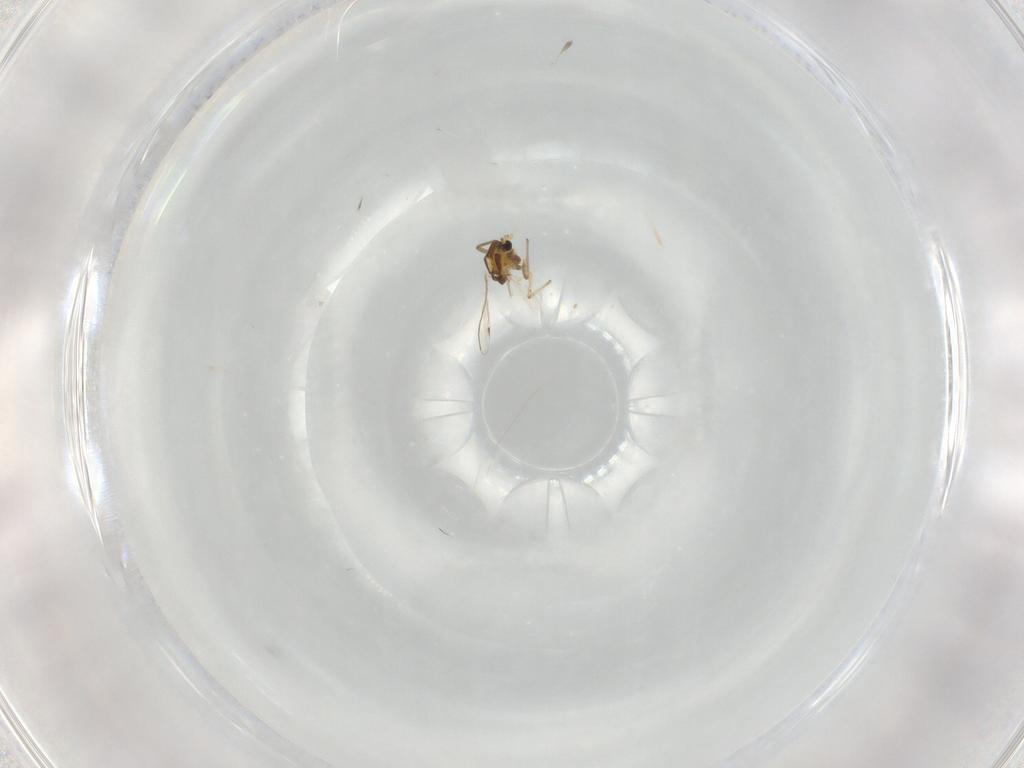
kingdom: Animalia
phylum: Arthropoda
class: Insecta
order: Diptera
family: Chironomidae
